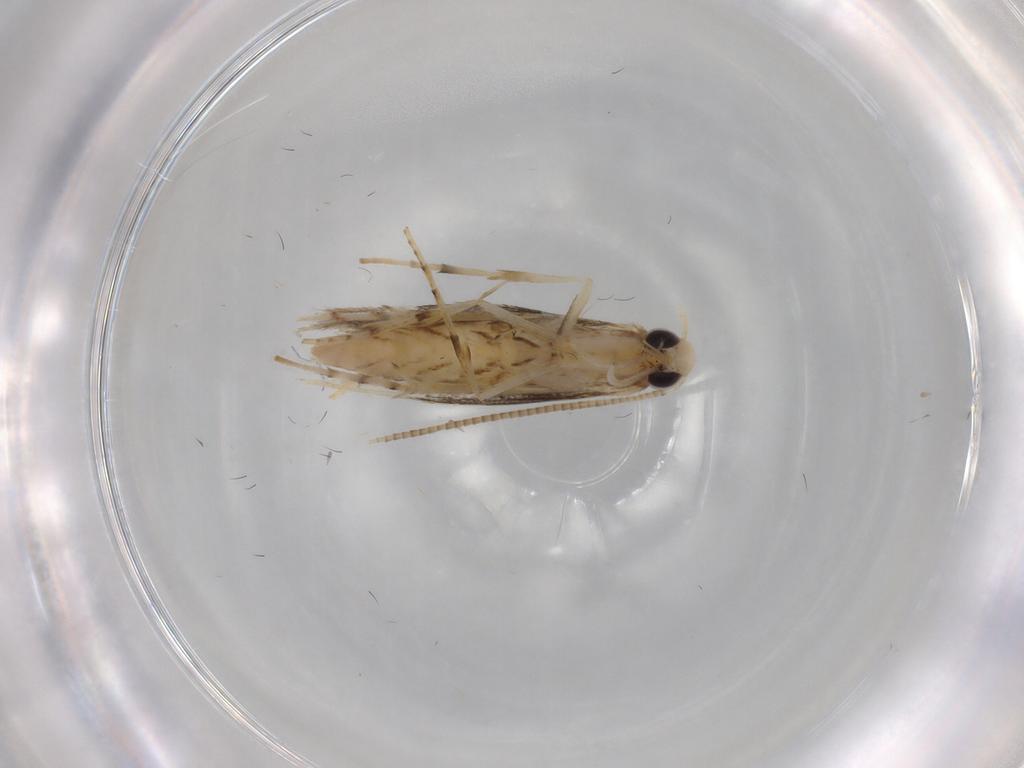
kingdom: Animalia
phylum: Arthropoda
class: Insecta
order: Lepidoptera
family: Gracillariidae
